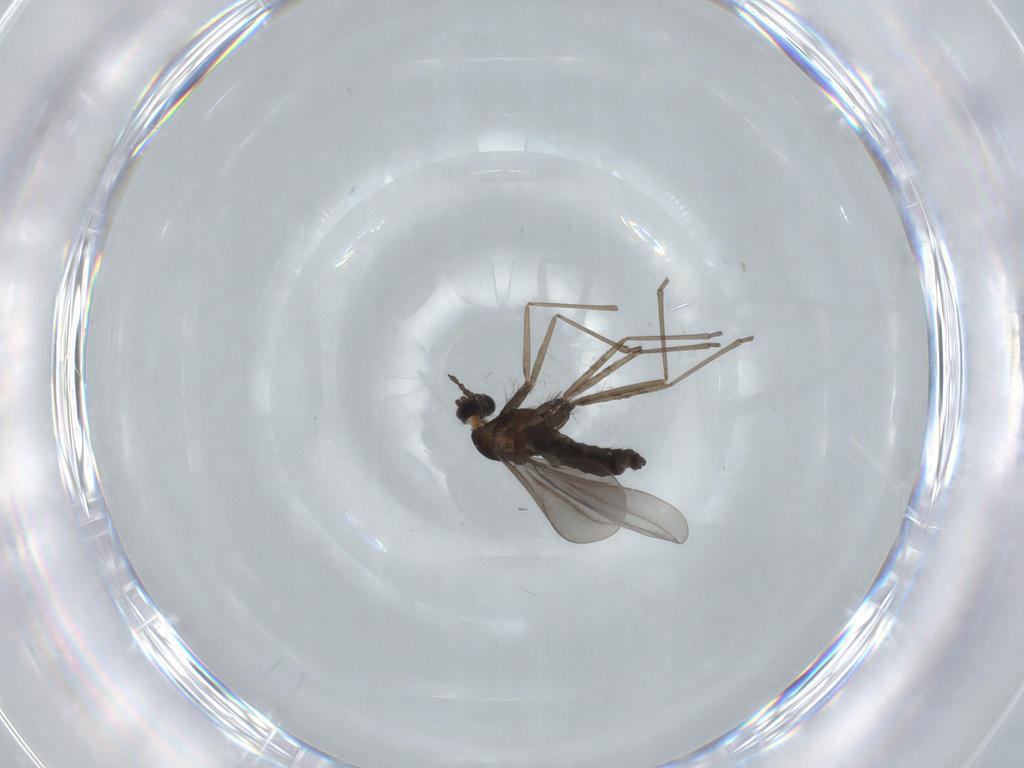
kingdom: Animalia
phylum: Arthropoda
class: Insecta
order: Diptera
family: Cecidomyiidae
